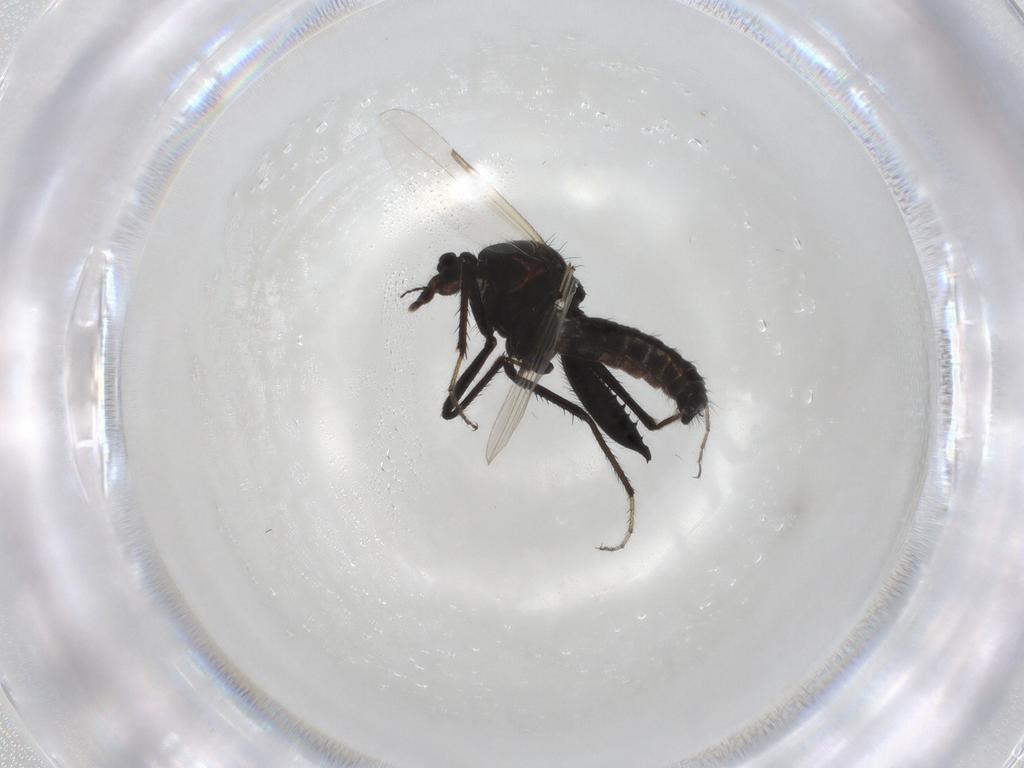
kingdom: Animalia
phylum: Arthropoda
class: Insecta
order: Diptera
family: Ceratopogonidae
